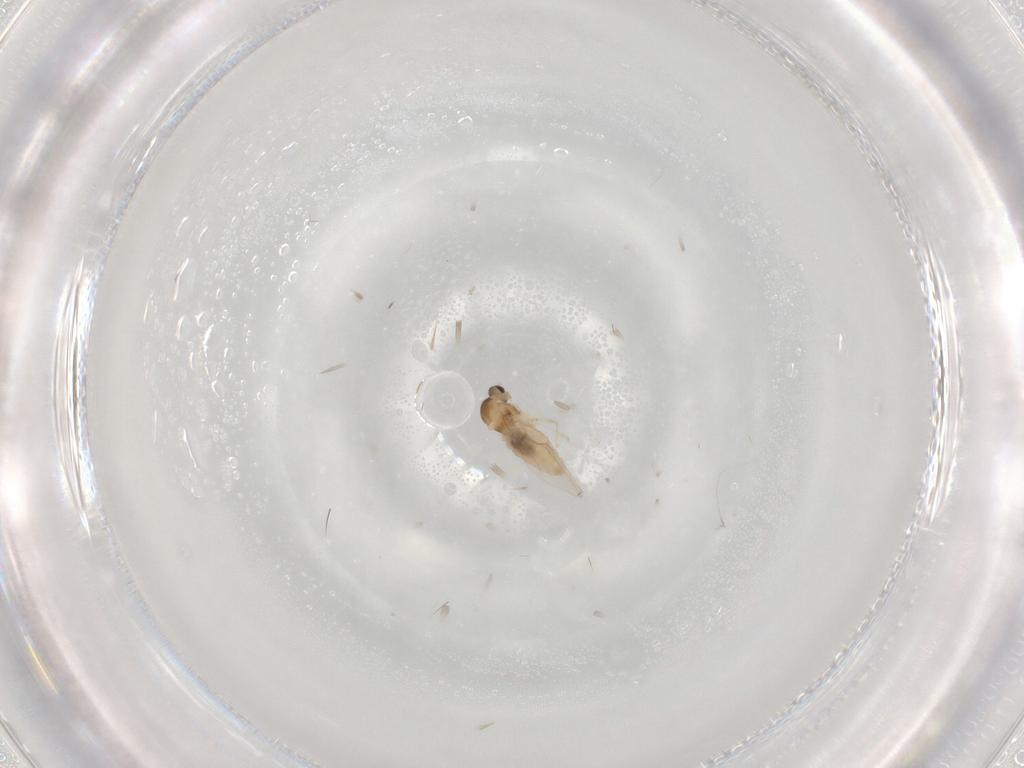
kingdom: Animalia
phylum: Arthropoda
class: Insecta
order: Diptera
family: Cecidomyiidae
